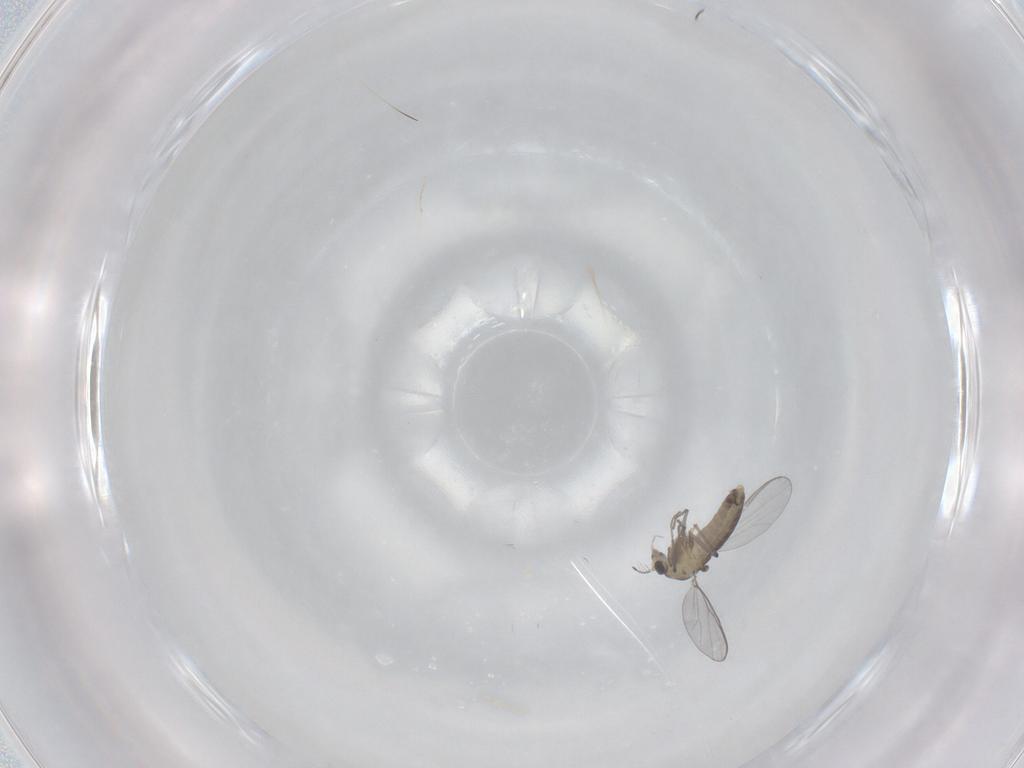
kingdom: Animalia
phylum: Arthropoda
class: Insecta
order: Diptera
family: Chironomidae
